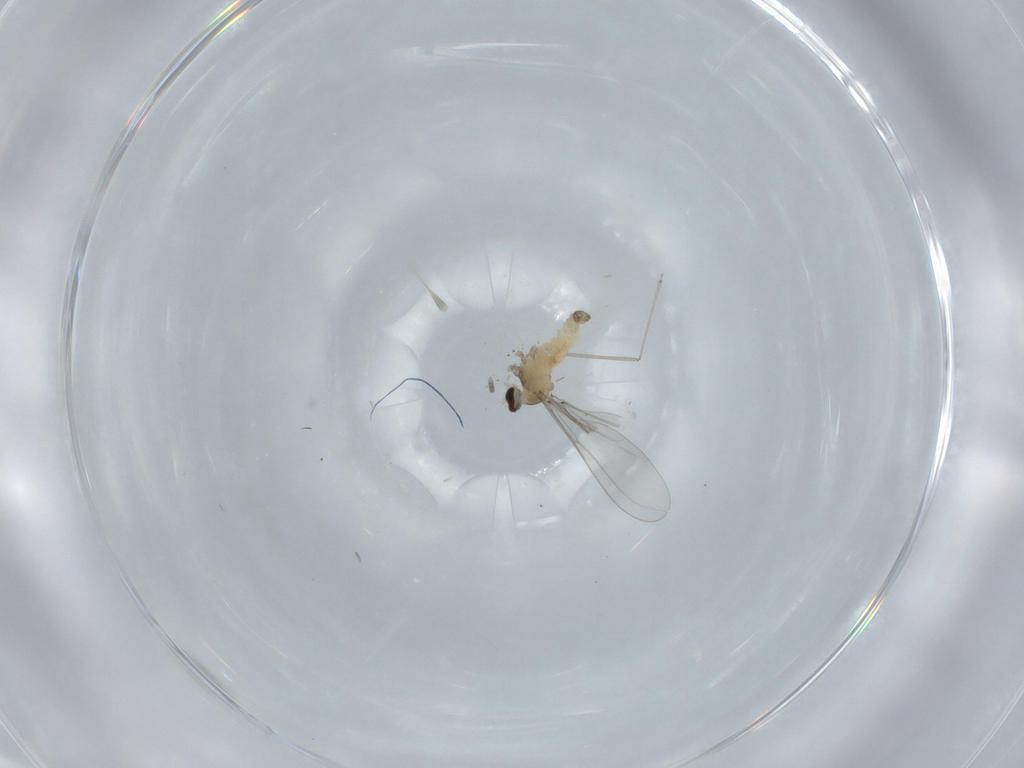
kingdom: Animalia
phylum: Arthropoda
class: Insecta
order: Diptera
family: Cecidomyiidae
